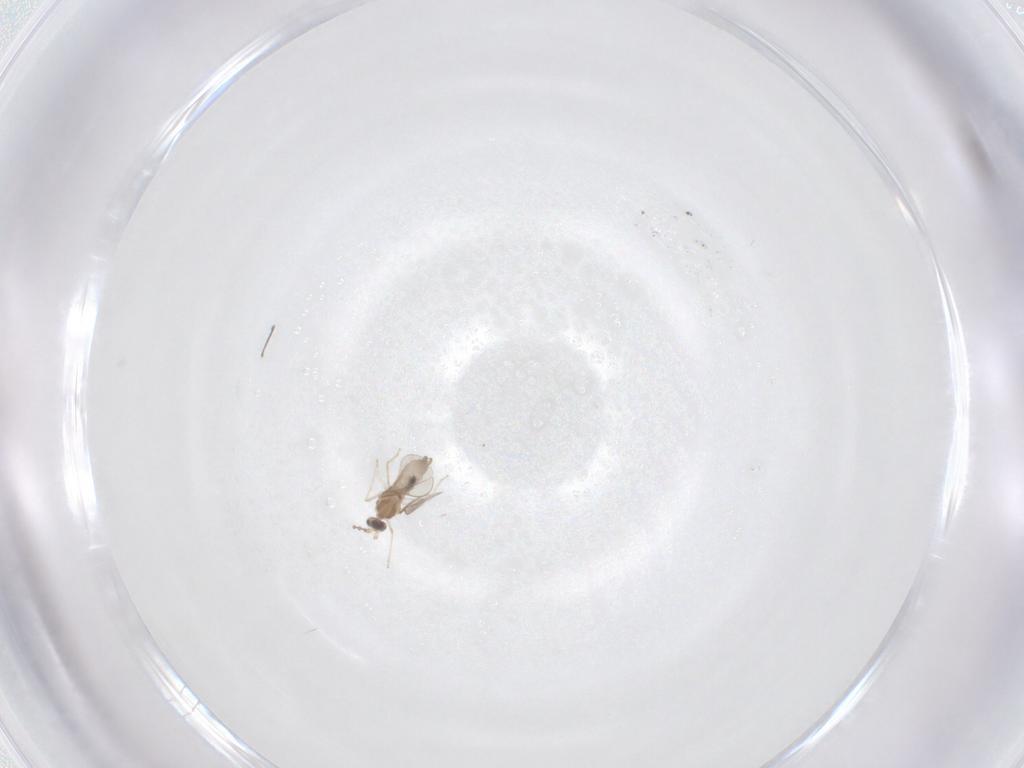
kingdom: Animalia
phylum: Arthropoda
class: Insecta
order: Diptera
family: Cecidomyiidae
